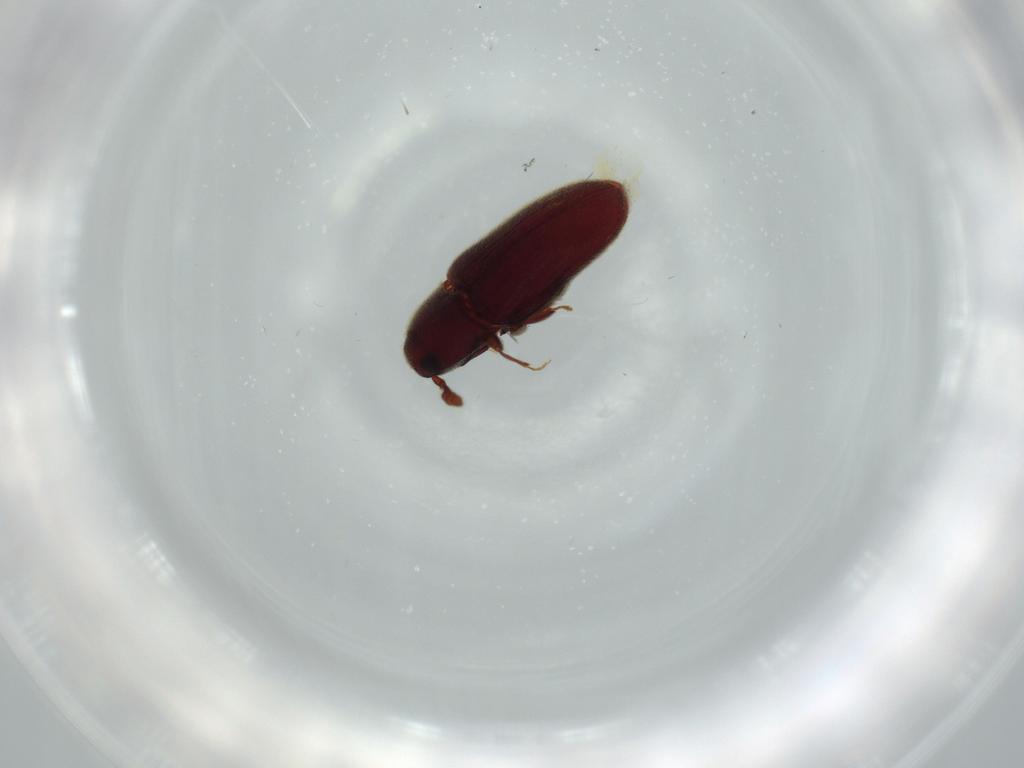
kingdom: Animalia
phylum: Arthropoda
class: Insecta
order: Coleoptera
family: Throscidae
